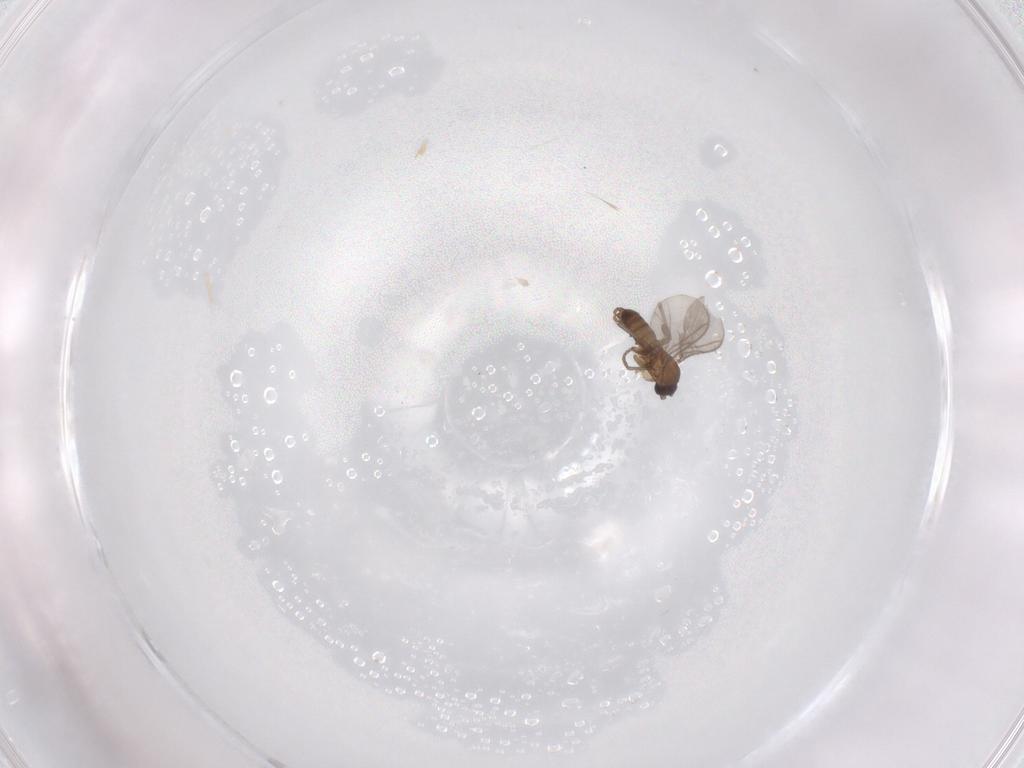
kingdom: Animalia
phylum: Arthropoda
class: Insecta
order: Diptera
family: Sciaridae
